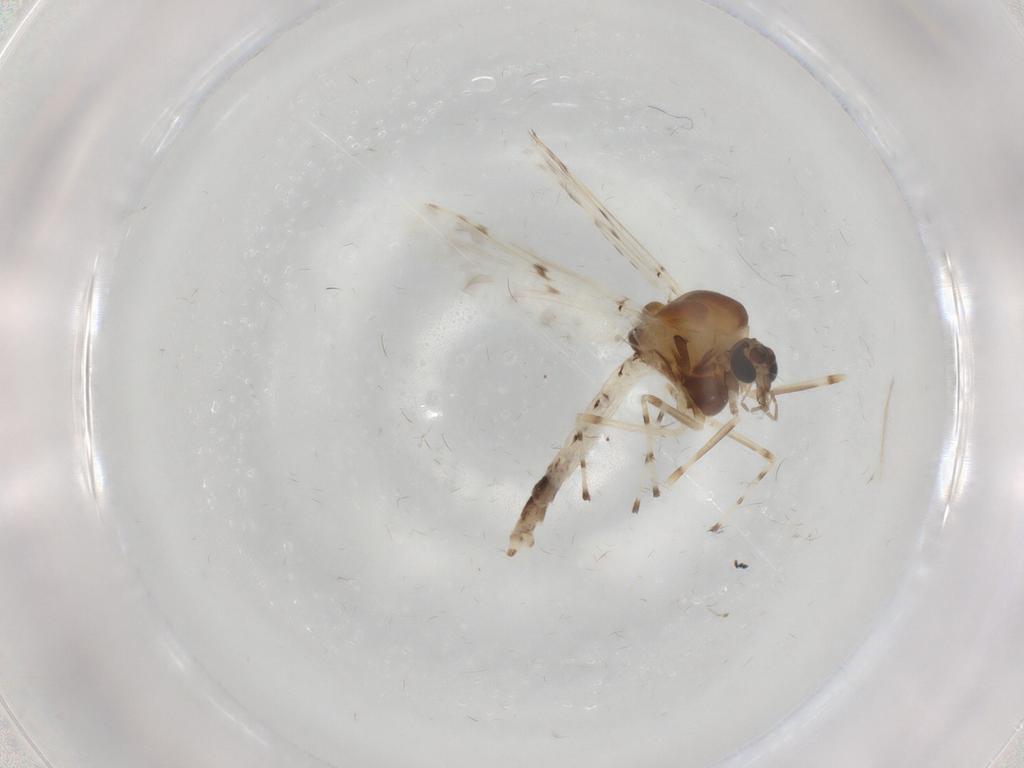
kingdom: Animalia
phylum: Arthropoda
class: Insecta
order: Diptera
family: Chironomidae
